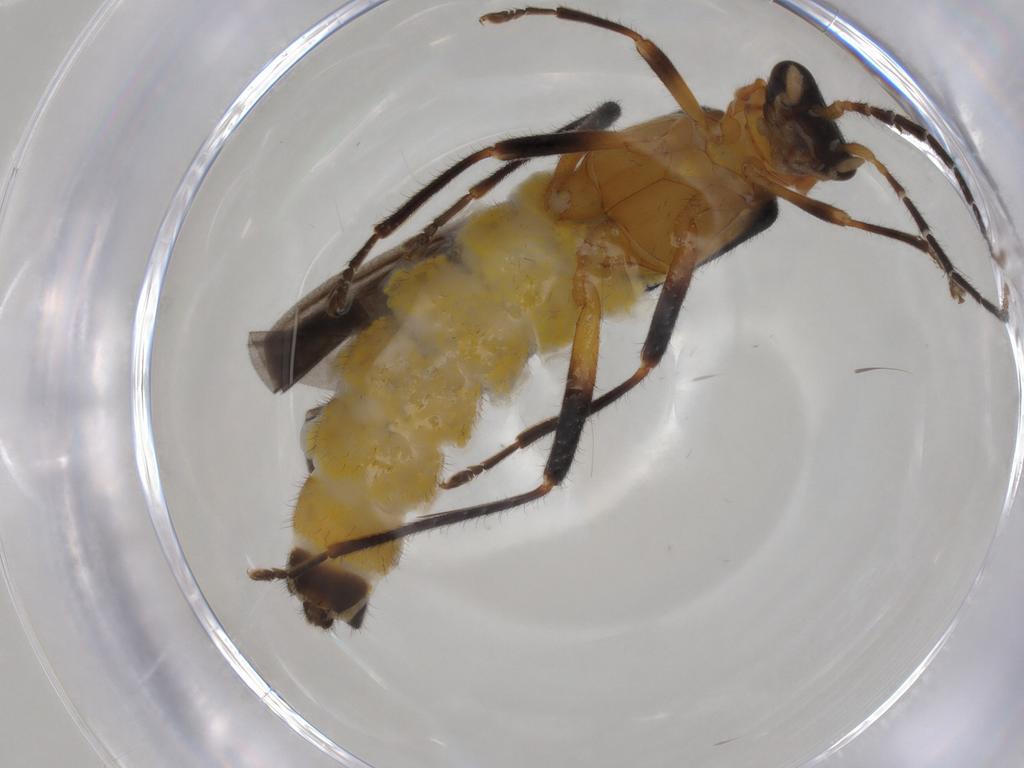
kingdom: Animalia
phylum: Arthropoda
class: Insecta
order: Coleoptera
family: Cantharidae
